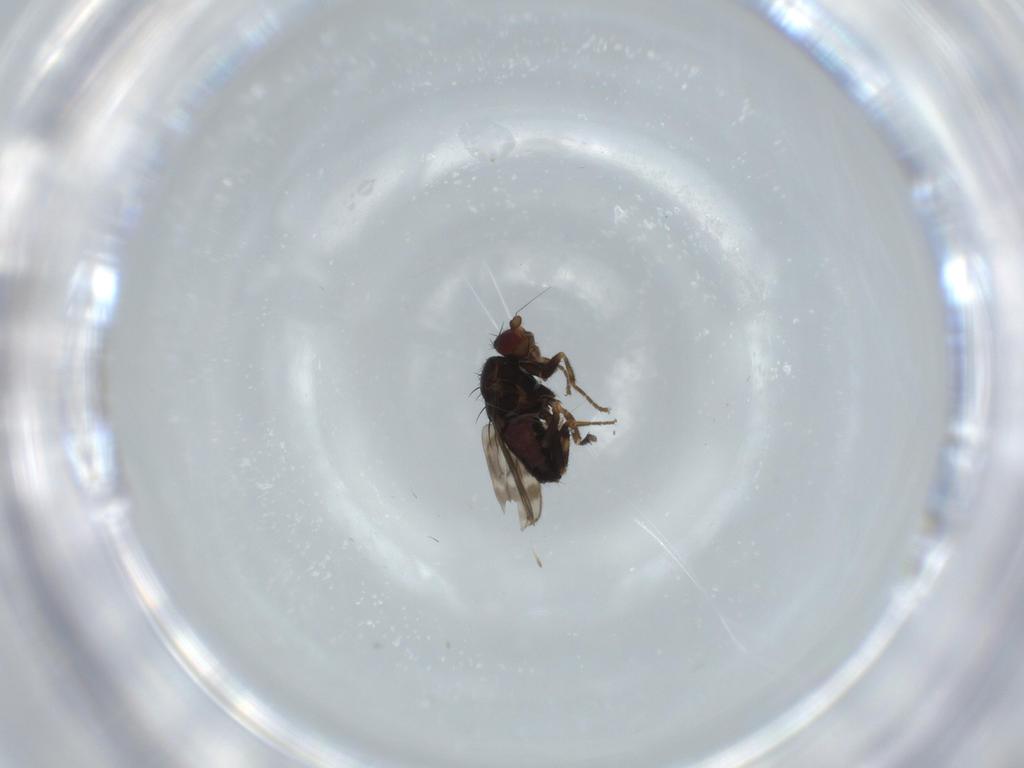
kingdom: Animalia
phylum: Arthropoda
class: Insecta
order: Diptera
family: Sphaeroceridae
